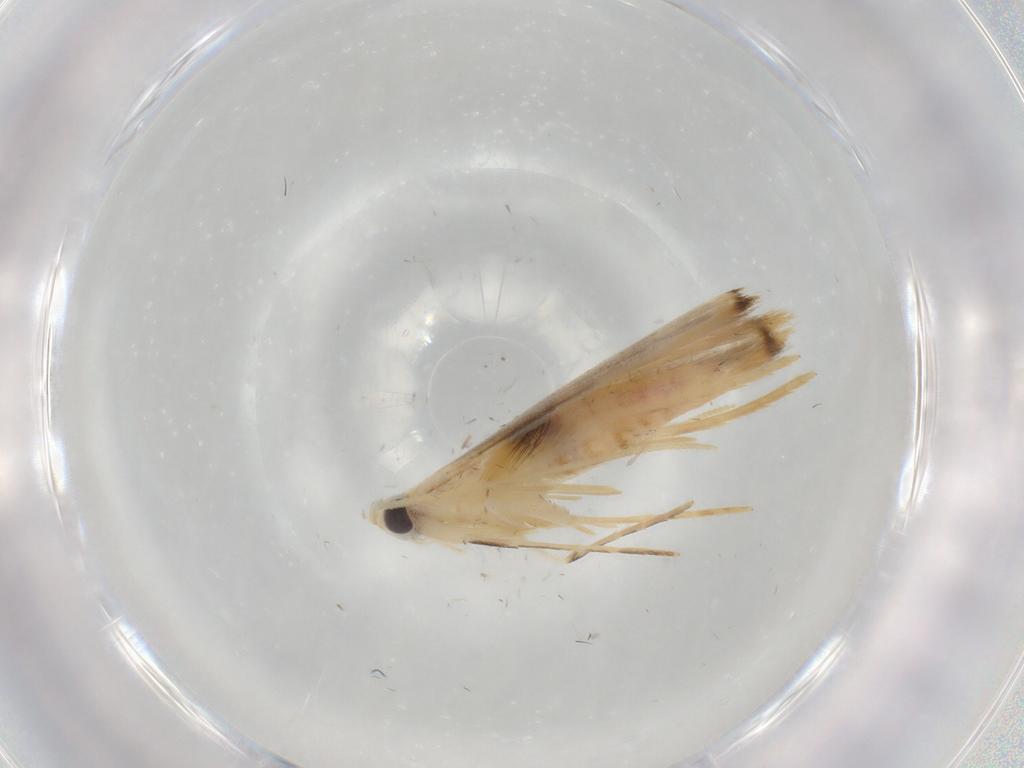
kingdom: Animalia
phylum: Arthropoda
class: Insecta
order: Lepidoptera
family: Lyonetiidae
